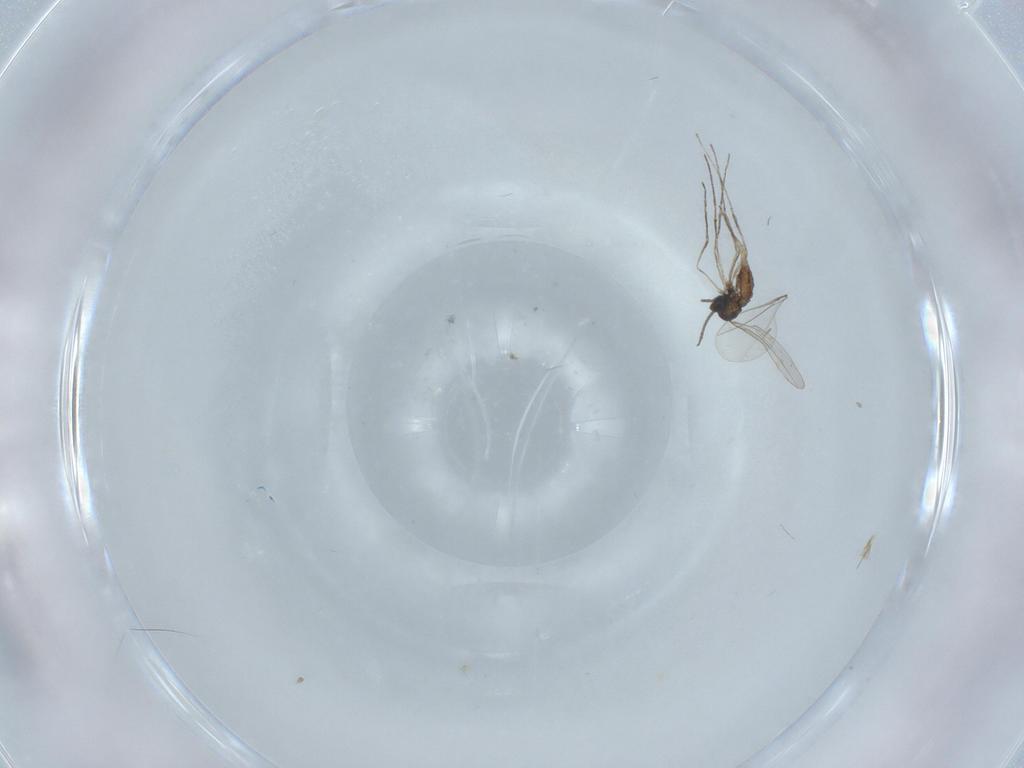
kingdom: Animalia
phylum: Arthropoda
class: Insecta
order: Diptera
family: Cecidomyiidae
